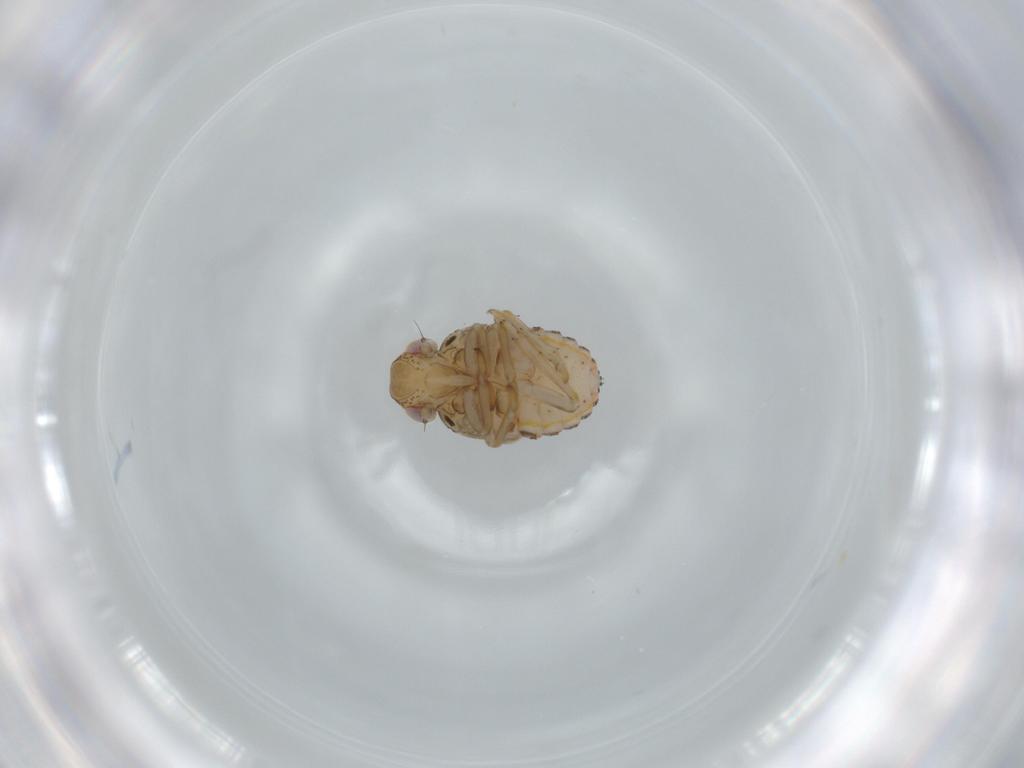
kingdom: Animalia
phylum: Arthropoda
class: Insecta
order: Hemiptera
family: Issidae
